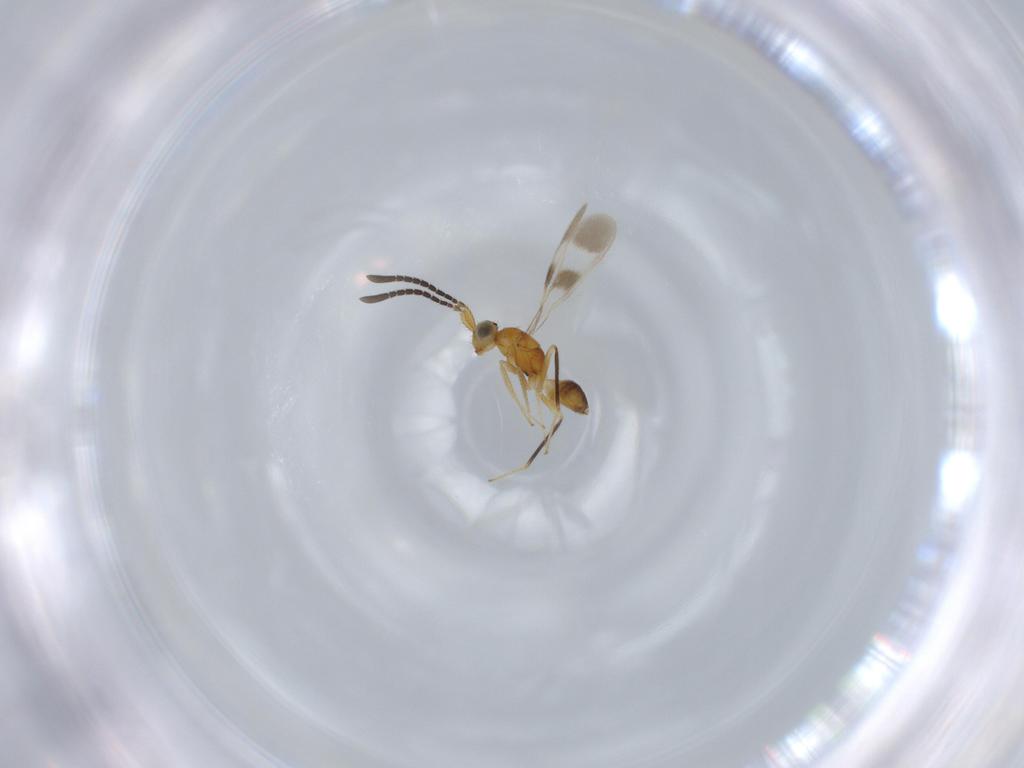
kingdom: Animalia
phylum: Arthropoda
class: Insecta
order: Hymenoptera
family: Mymaridae
